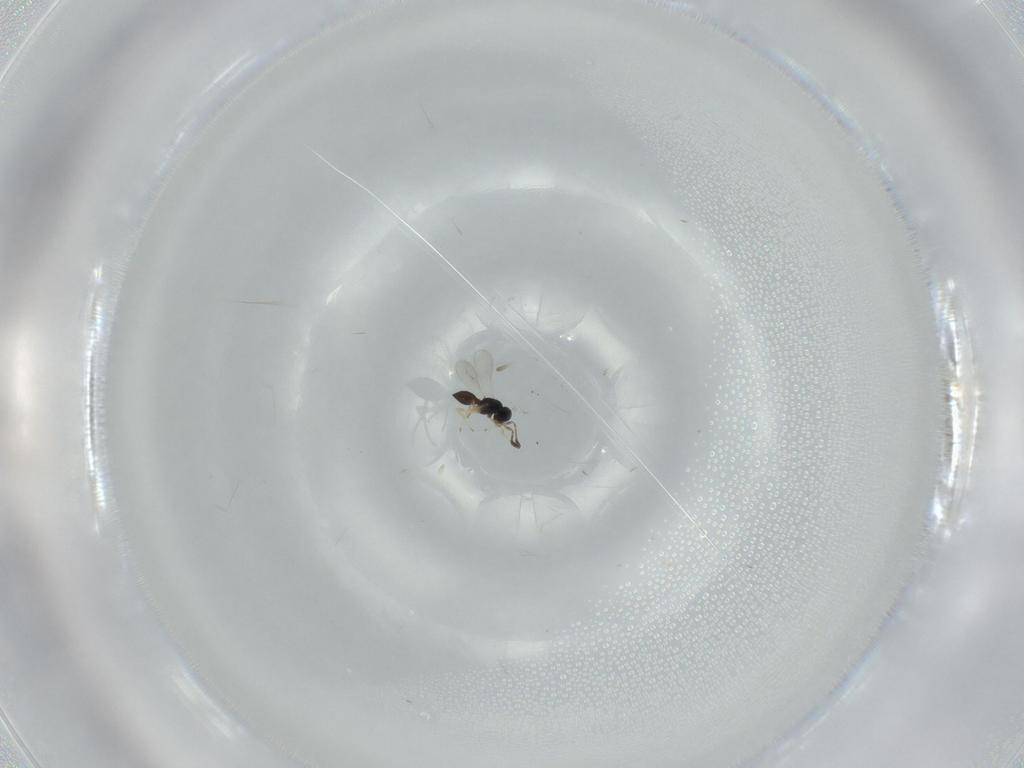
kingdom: Animalia
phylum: Arthropoda
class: Insecta
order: Hymenoptera
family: Scelionidae
